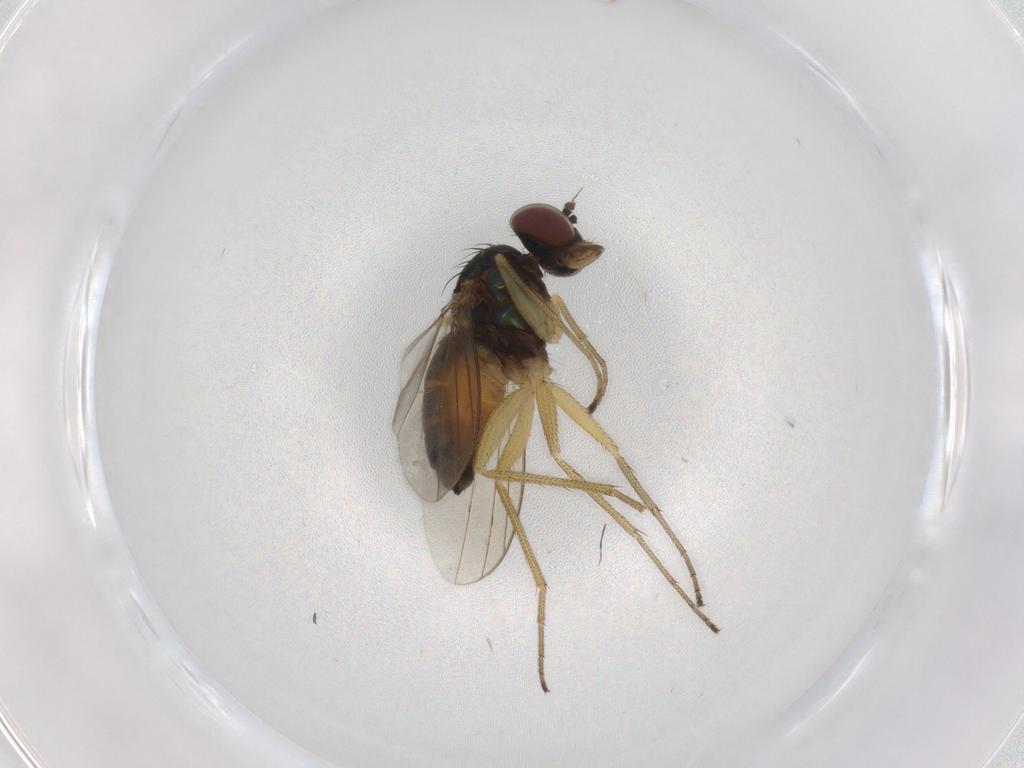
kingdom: Animalia
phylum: Arthropoda
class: Insecta
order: Diptera
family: Dolichopodidae
